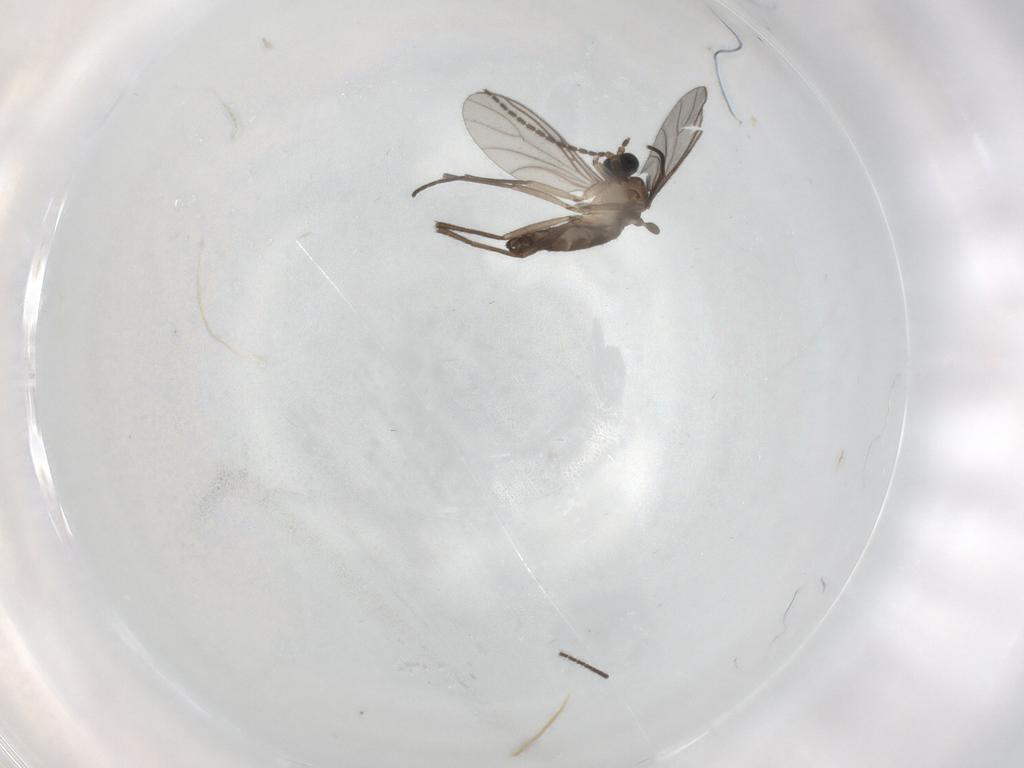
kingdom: Animalia
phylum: Arthropoda
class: Insecta
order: Diptera
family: Sciaridae
